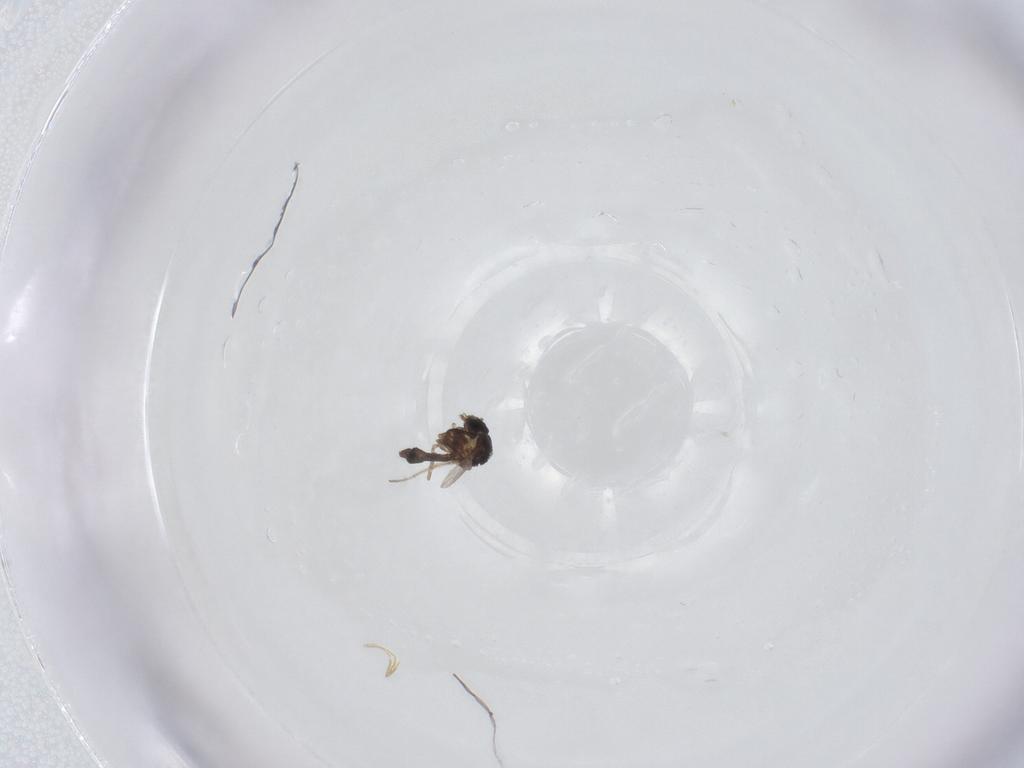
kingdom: Animalia
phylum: Arthropoda
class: Insecta
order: Diptera
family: Ceratopogonidae
